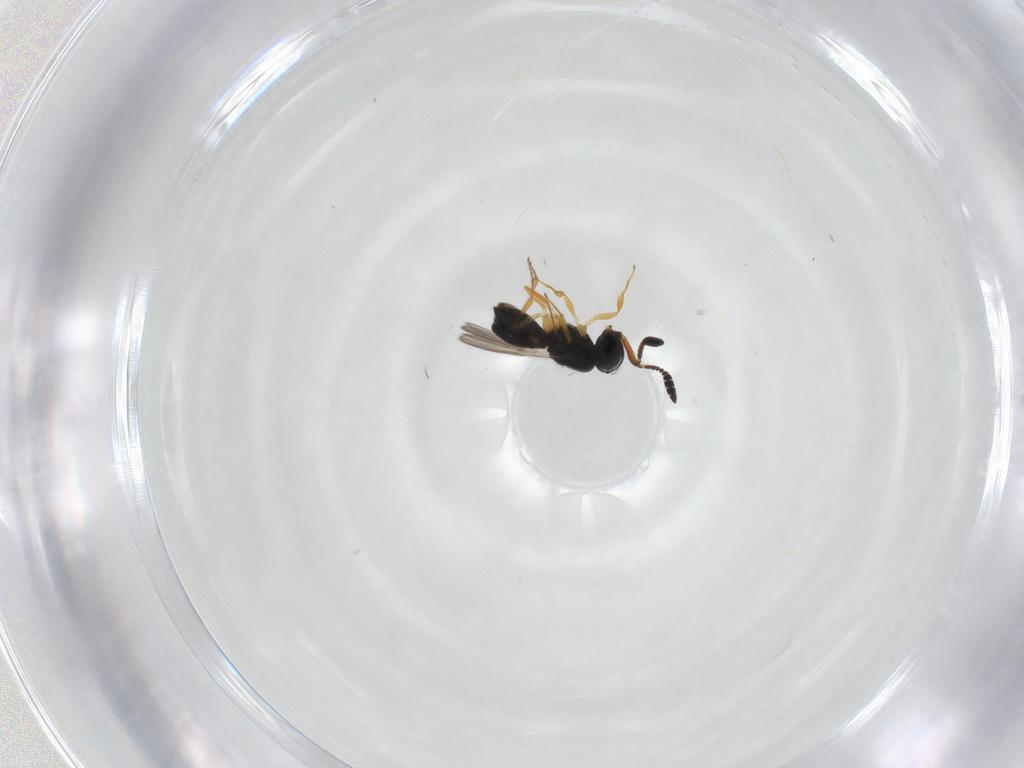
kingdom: Animalia
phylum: Arthropoda
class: Insecta
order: Hymenoptera
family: Scelionidae
